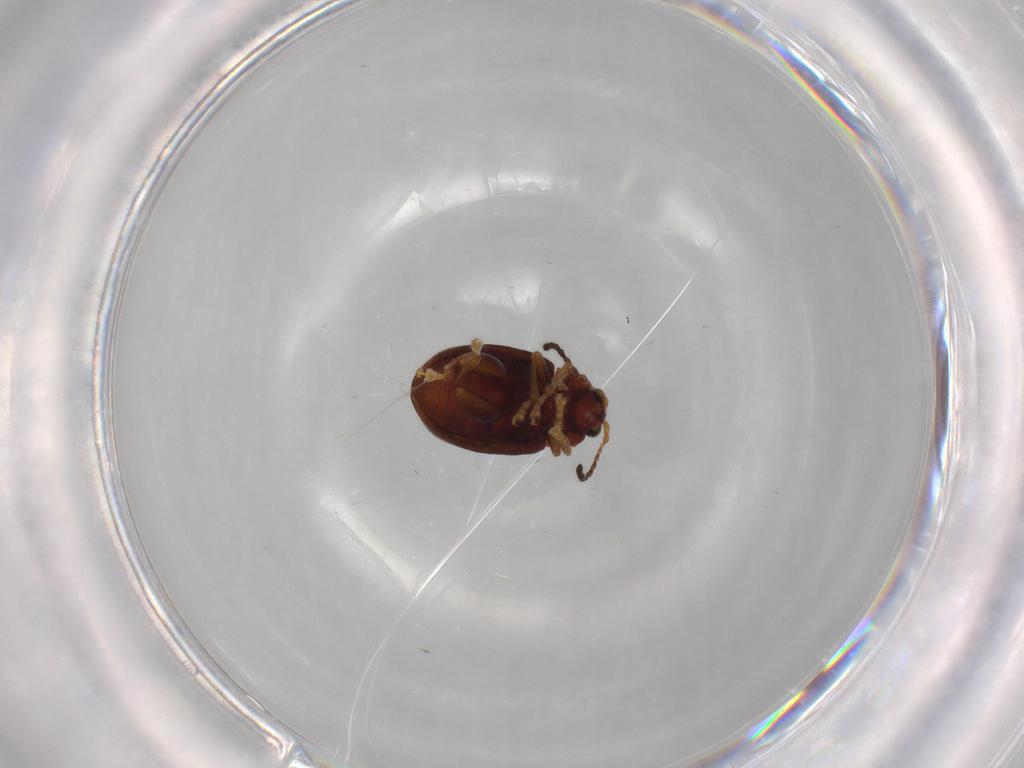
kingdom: Animalia
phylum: Arthropoda
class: Insecta
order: Coleoptera
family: Chrysomelidae
